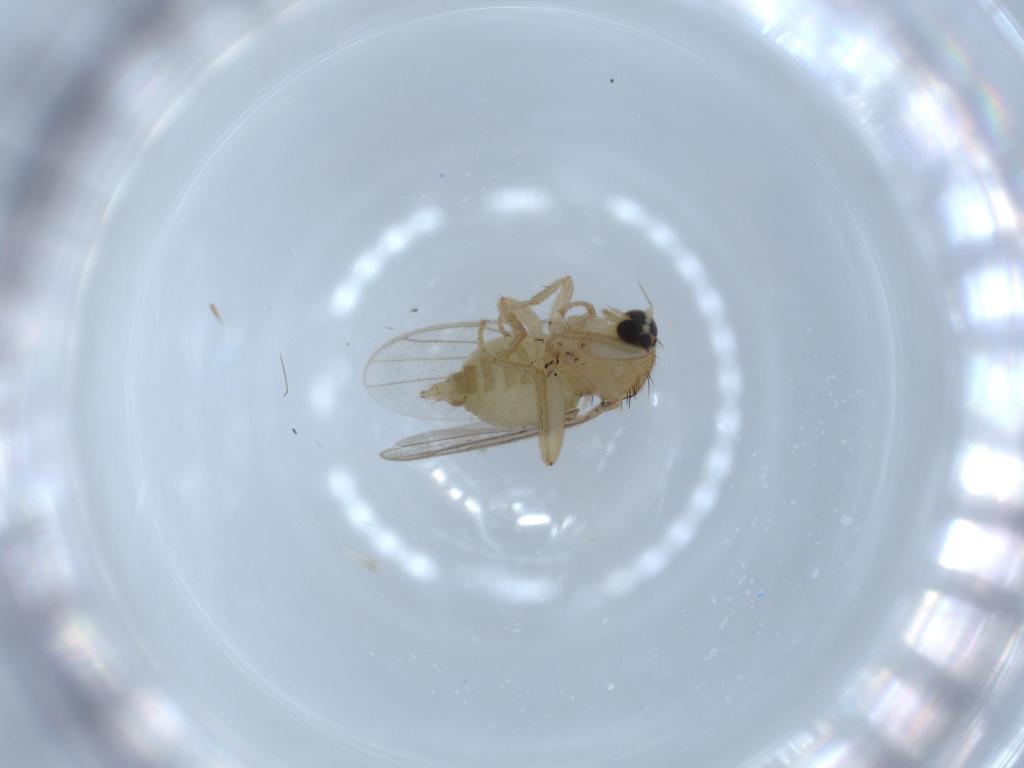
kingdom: Animalia
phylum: Arthropoda
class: Insecta
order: Diptera
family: Hybotidae
